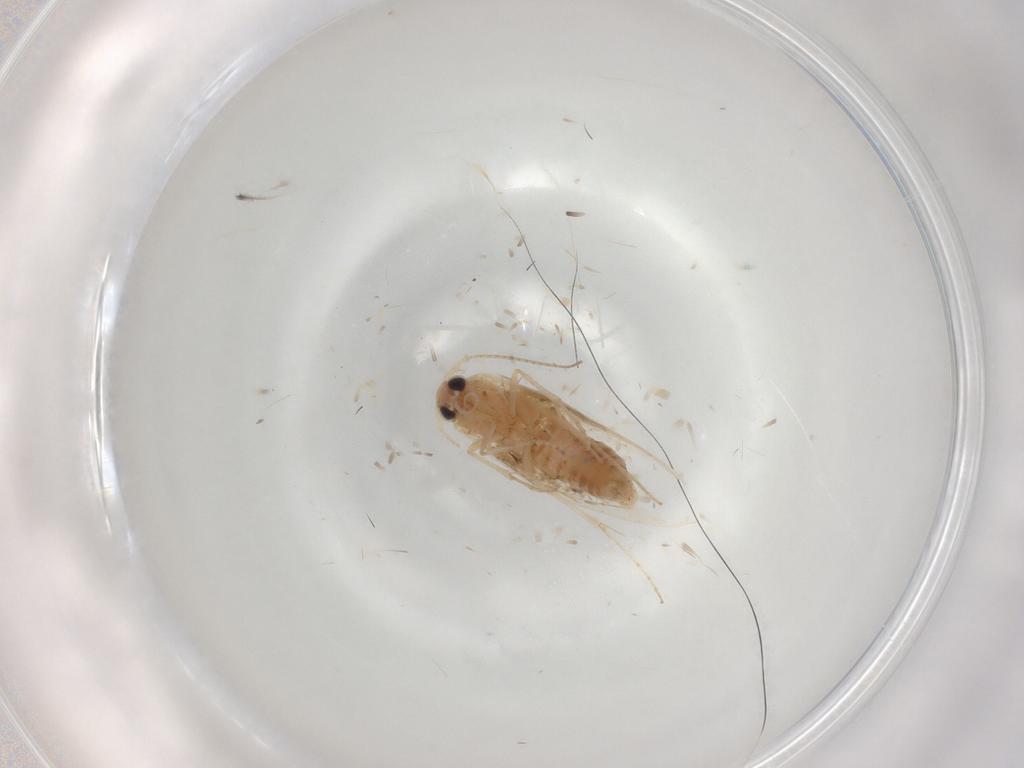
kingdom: Animalia
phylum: Arthropoda
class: Insecta
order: Lepidoptera
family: Bucculatricidae
